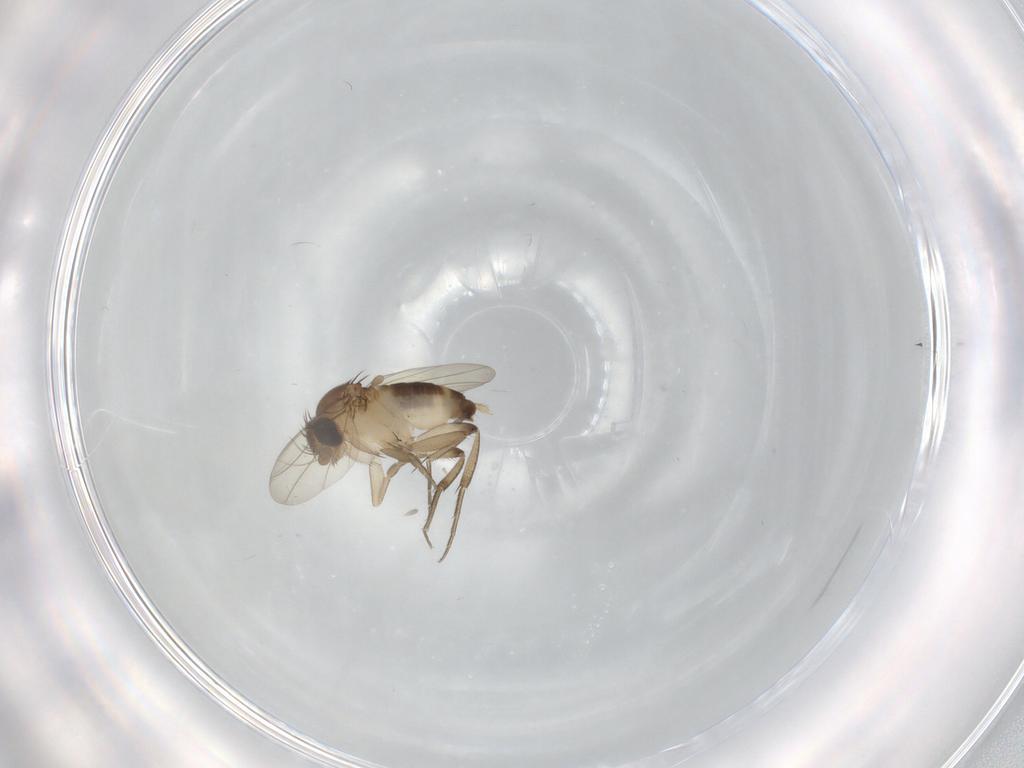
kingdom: Animalia
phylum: Arthropoda
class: Insecta
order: Diptera
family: Phoridae
